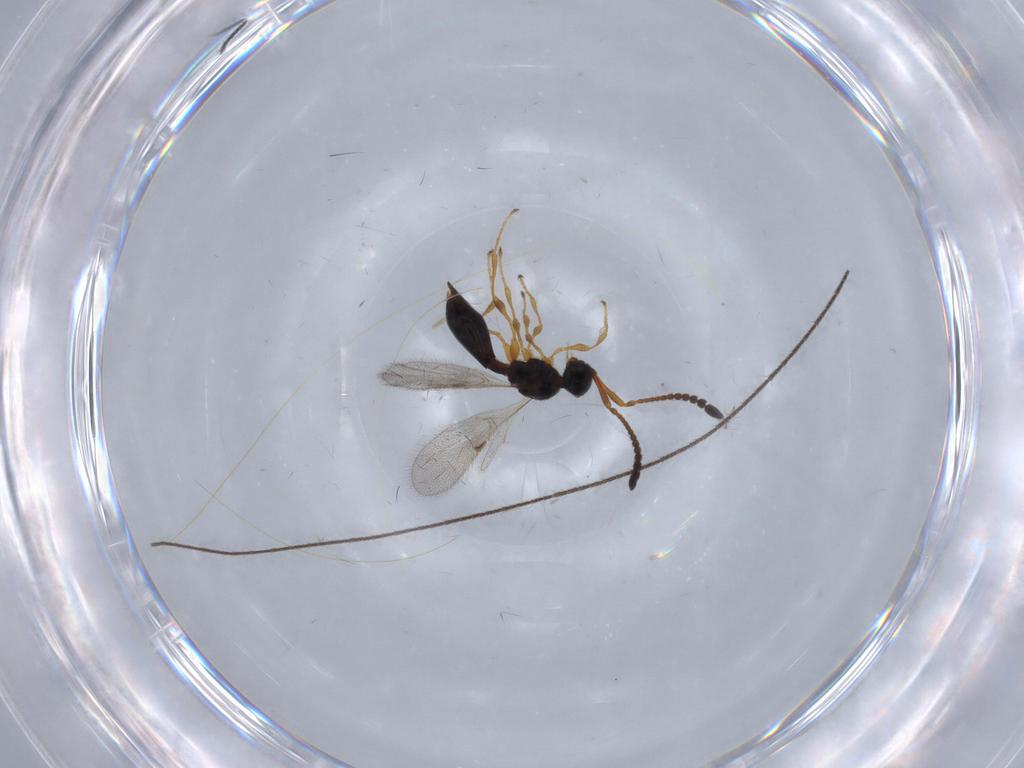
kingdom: Animalia
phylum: Arthropoda
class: Insecta
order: Hymenoptera
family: Diapriidae
